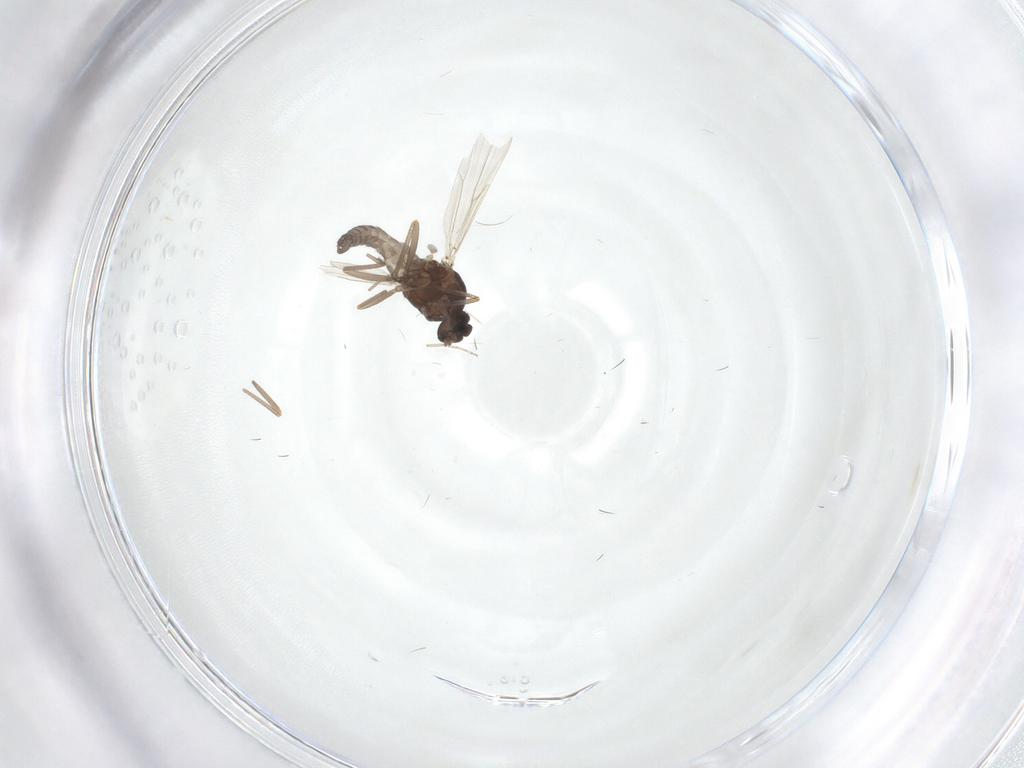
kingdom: Animalia
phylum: Arthropoda
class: Insecta
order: Diptera
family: Ceratopogonidae
